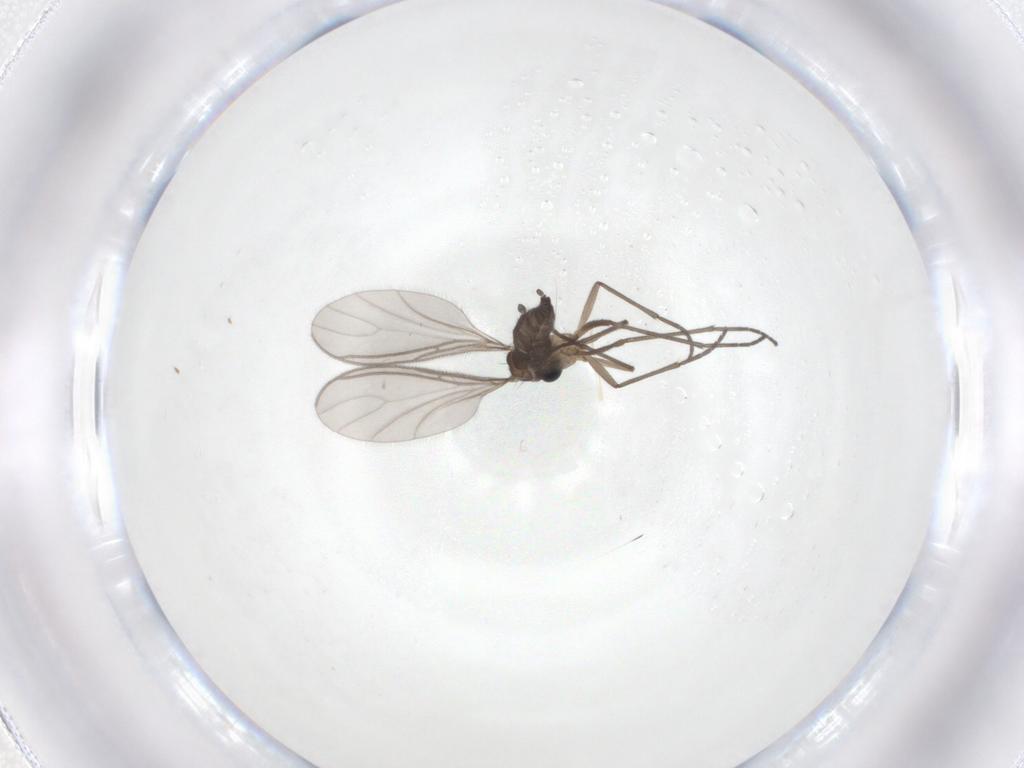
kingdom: Animalia
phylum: Arthropoda
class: Insecta
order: Diptera
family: Sciaridae
